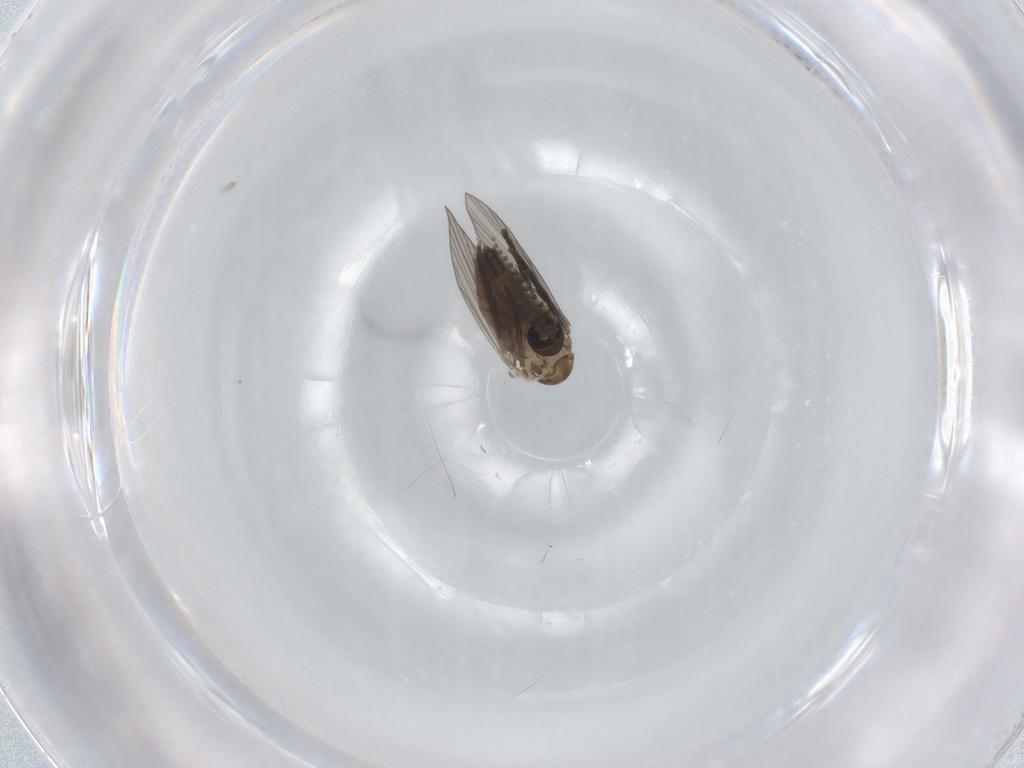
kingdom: Animalia
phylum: Arthropoda
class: Insecta
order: Diptera
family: Psychodidae
